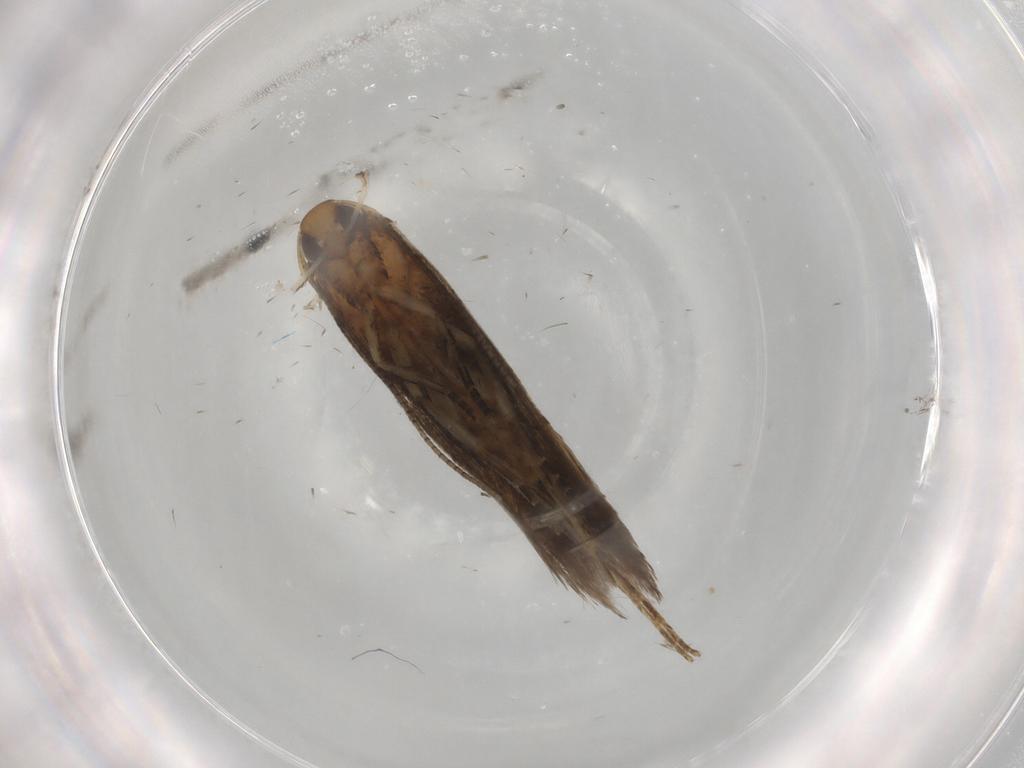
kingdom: Animalia
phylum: Arthropoda
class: Insecta
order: Lepidoptera
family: Cosmopterigidae
